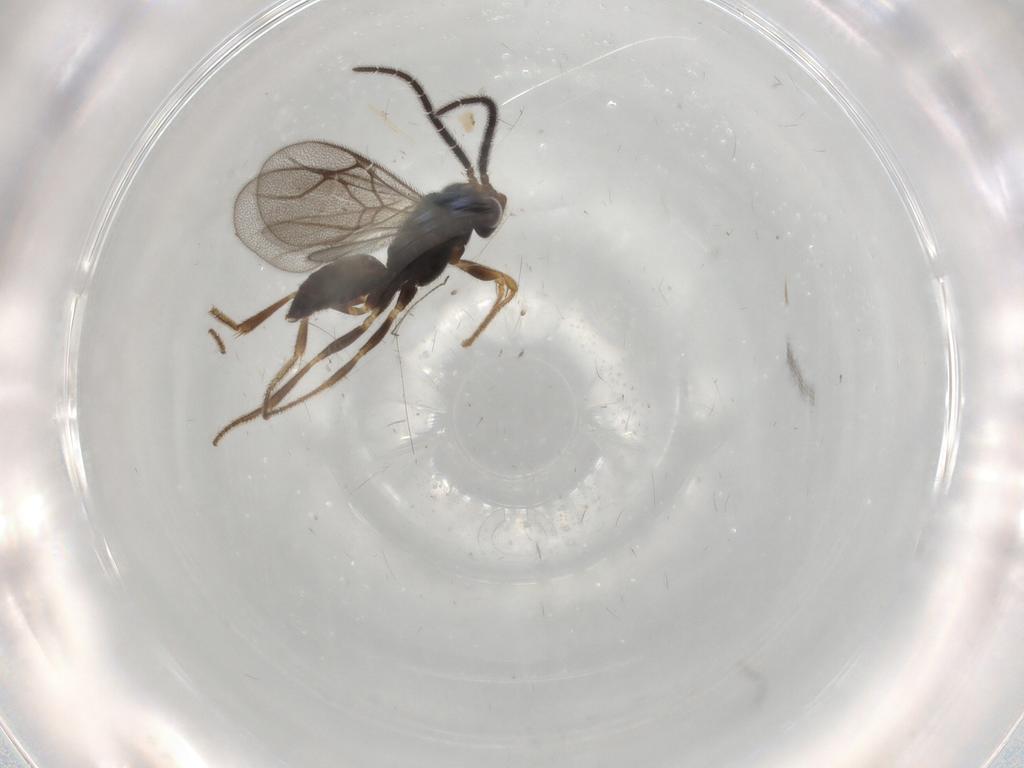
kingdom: Animalia
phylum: Arthropoda
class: Insecta
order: Hymenoptera
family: Dryinidae
